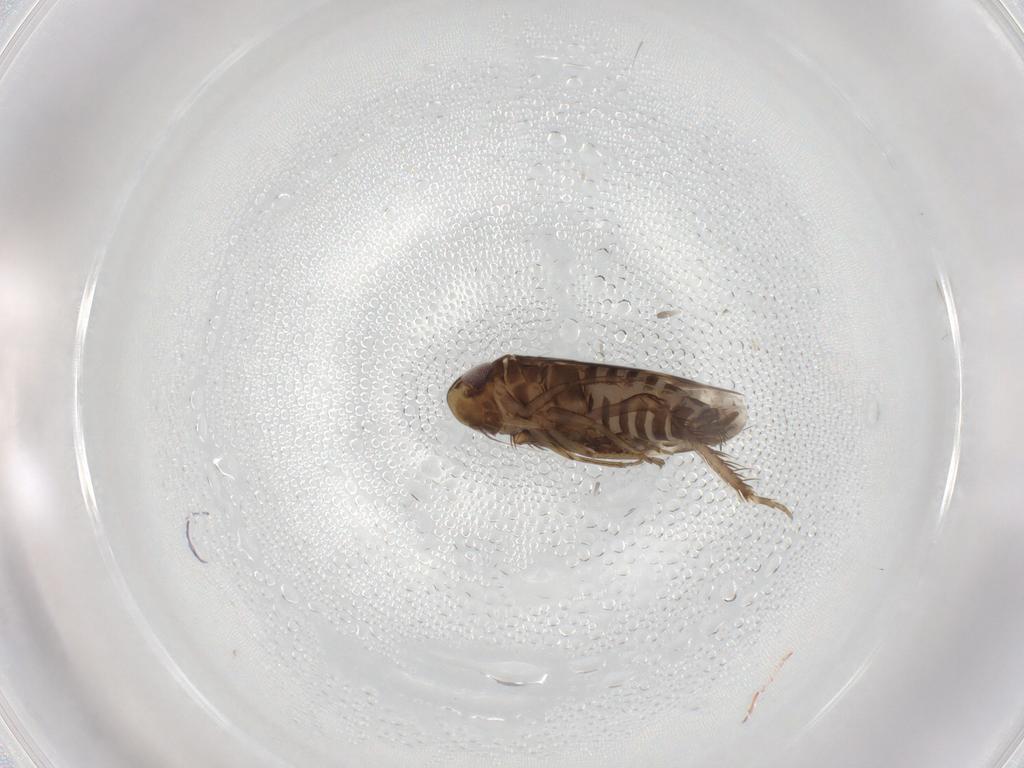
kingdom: Animalia
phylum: Arthropoda
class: Insecta
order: Hemiptera
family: Cicadellidae
